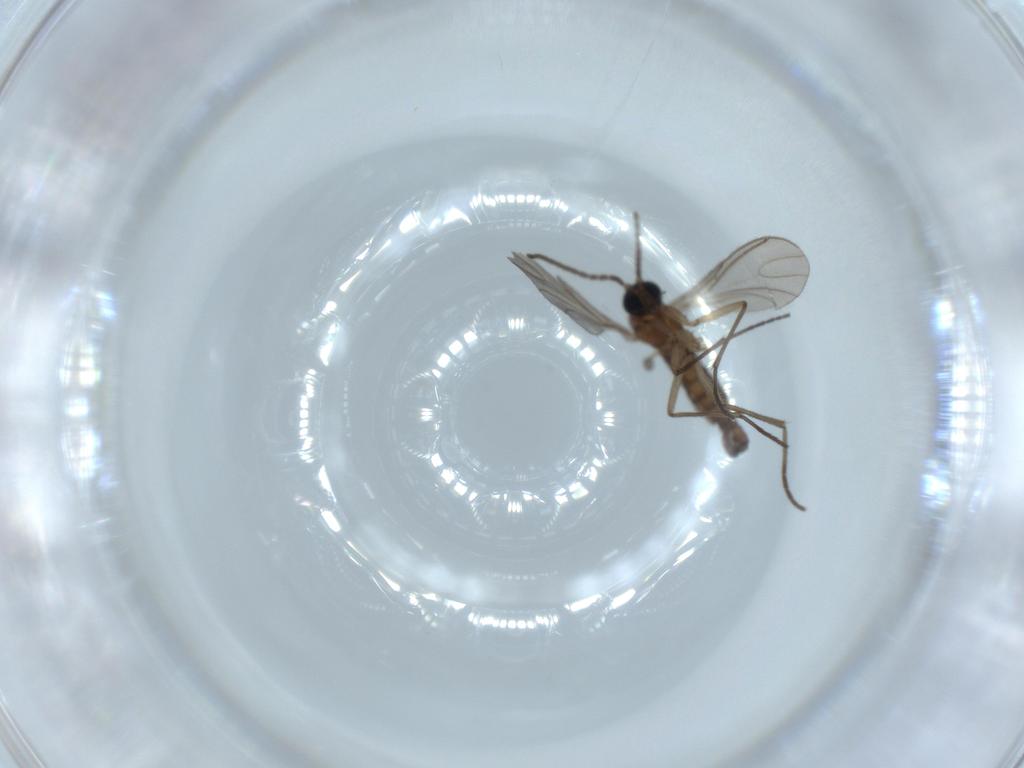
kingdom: Animalia
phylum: Arthropoda
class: Insecta
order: Diptera
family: Sciaridae
